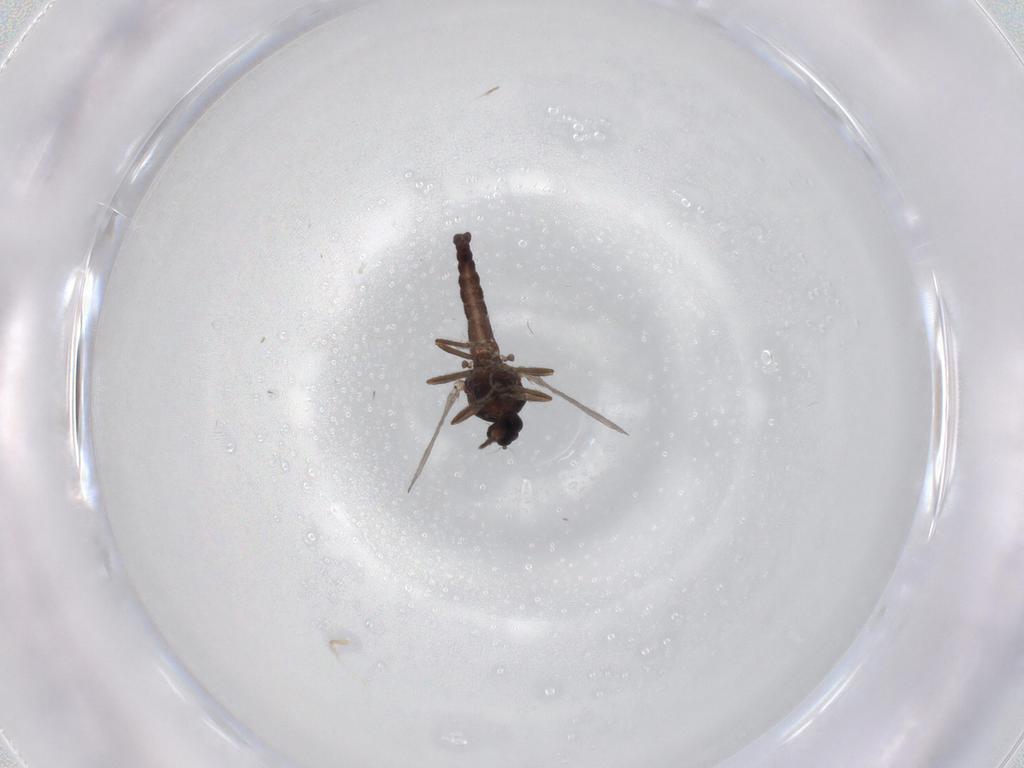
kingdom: Animalia
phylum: Arthropoda
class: Insecta
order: Diptera
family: Ceratopogonidae
